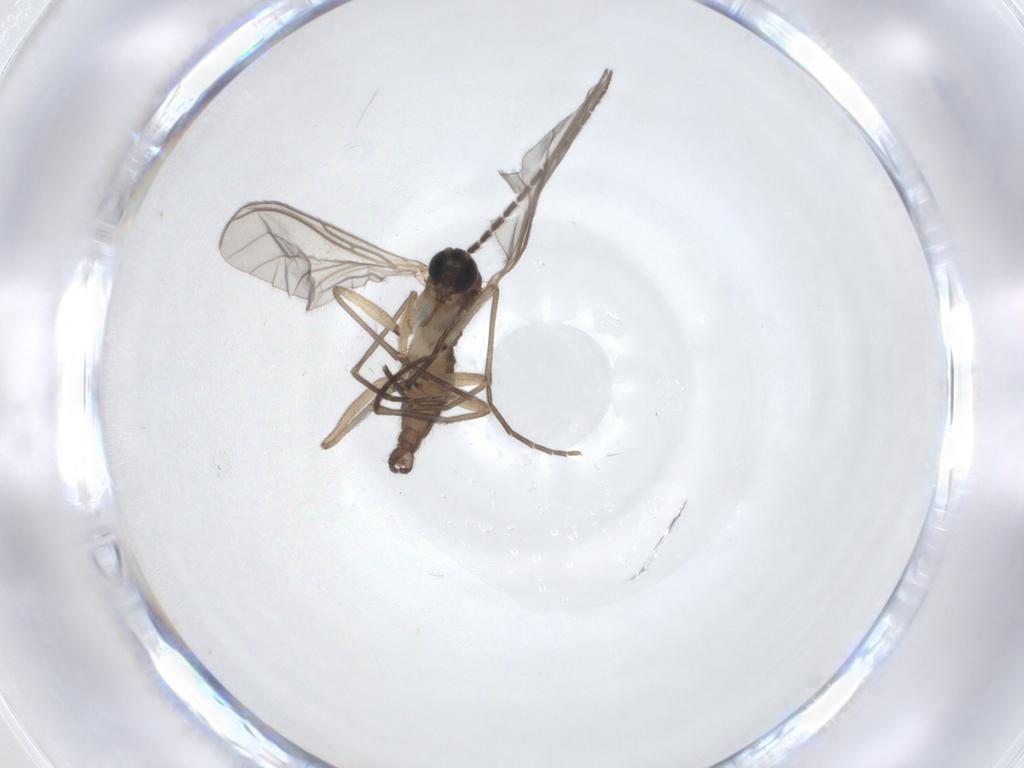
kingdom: Animalia
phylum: Arthropoda
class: Insecta
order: Diptera
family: Sciaridae
